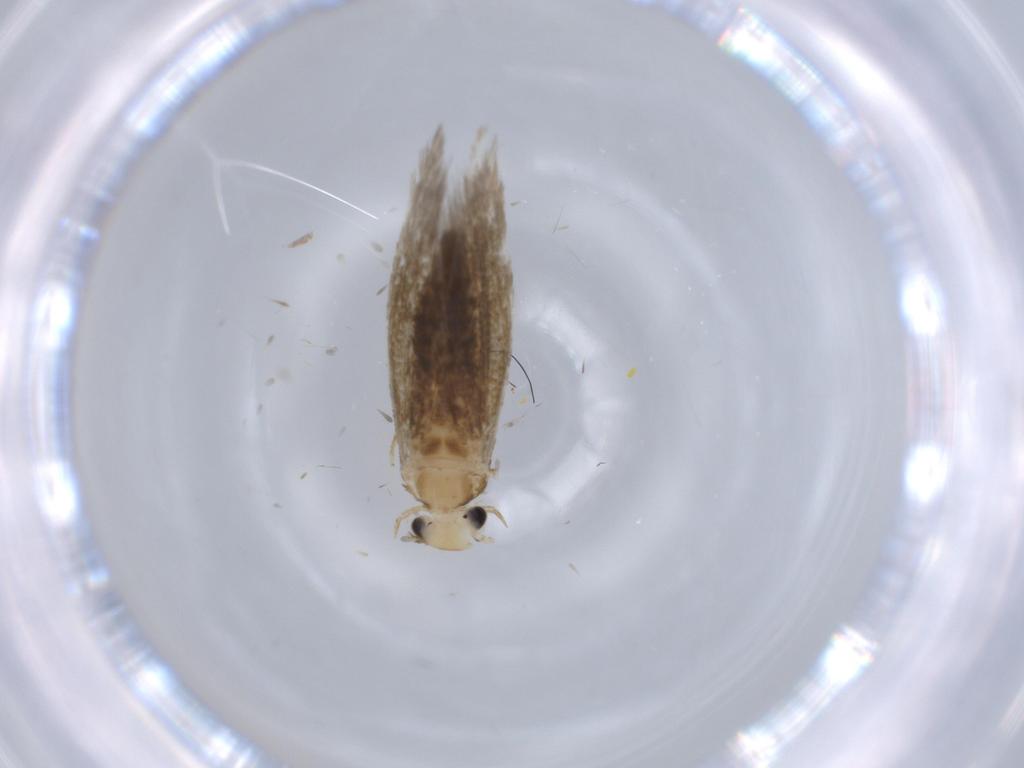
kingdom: Animalia
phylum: Arthropoda
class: Insecta
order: Lepidoptera
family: Tineidae
